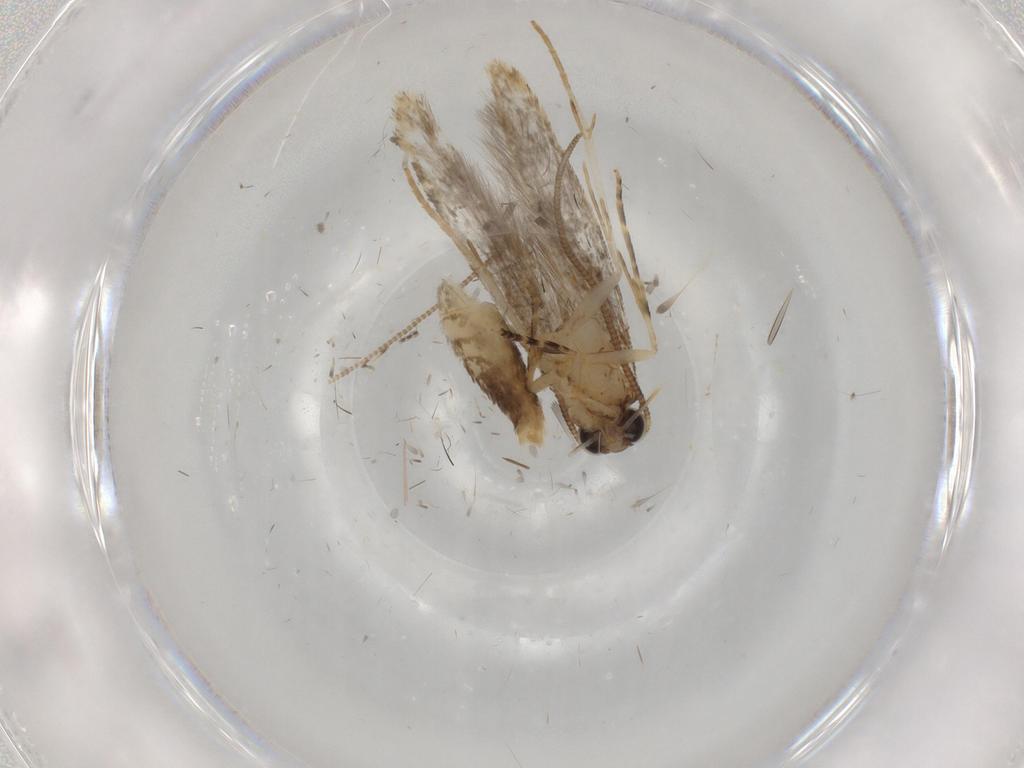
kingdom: Animalia
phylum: Arthropoda
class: Insecta
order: Lepidoptera
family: Tineidae
